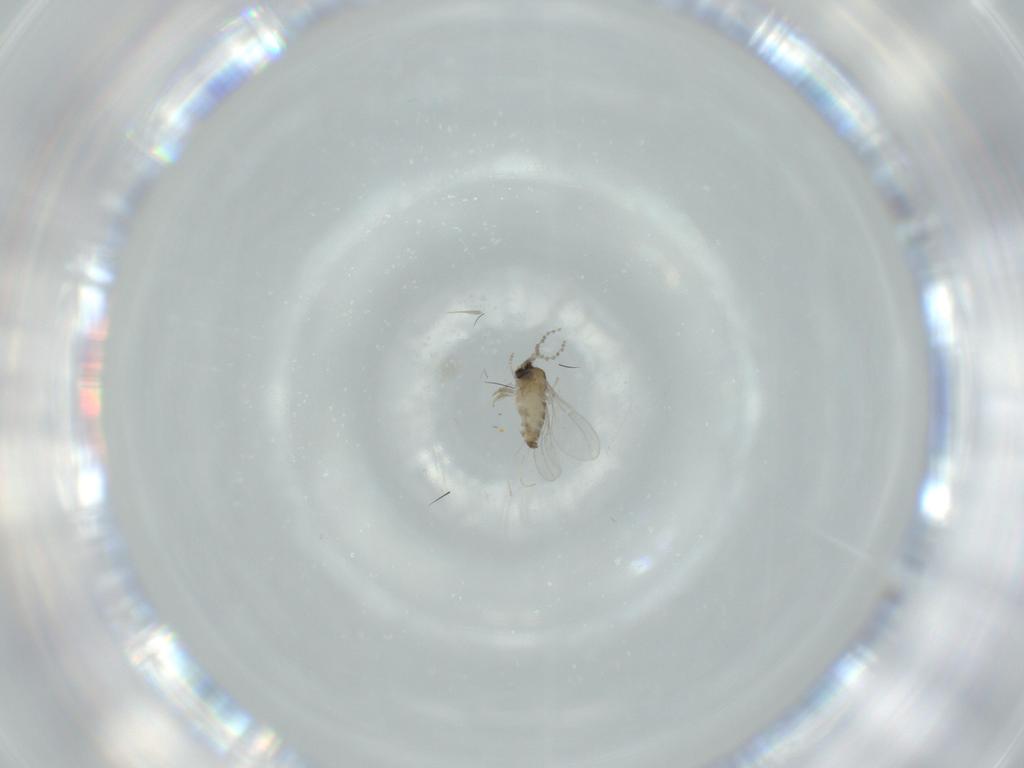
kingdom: Animalia
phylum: Arthropoda
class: Insecta
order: Diptera
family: Cecidomyiidae
